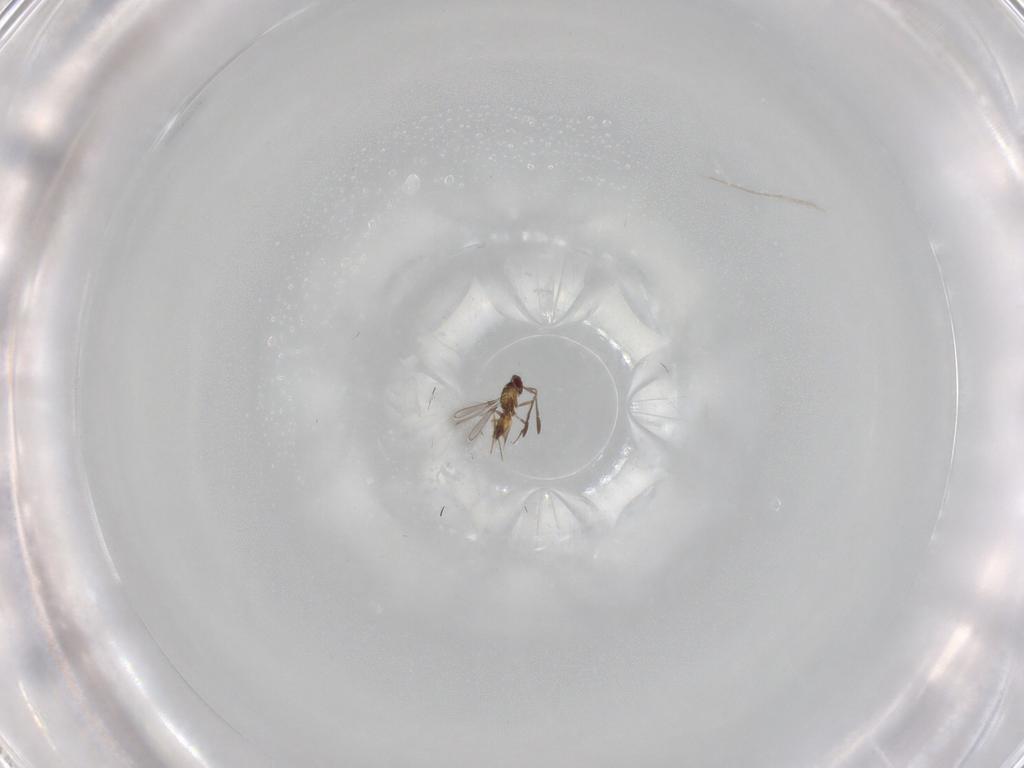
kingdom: Animalia
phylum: Arthropoda
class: Insecta
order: Hymenoptera
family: Mymaridae
